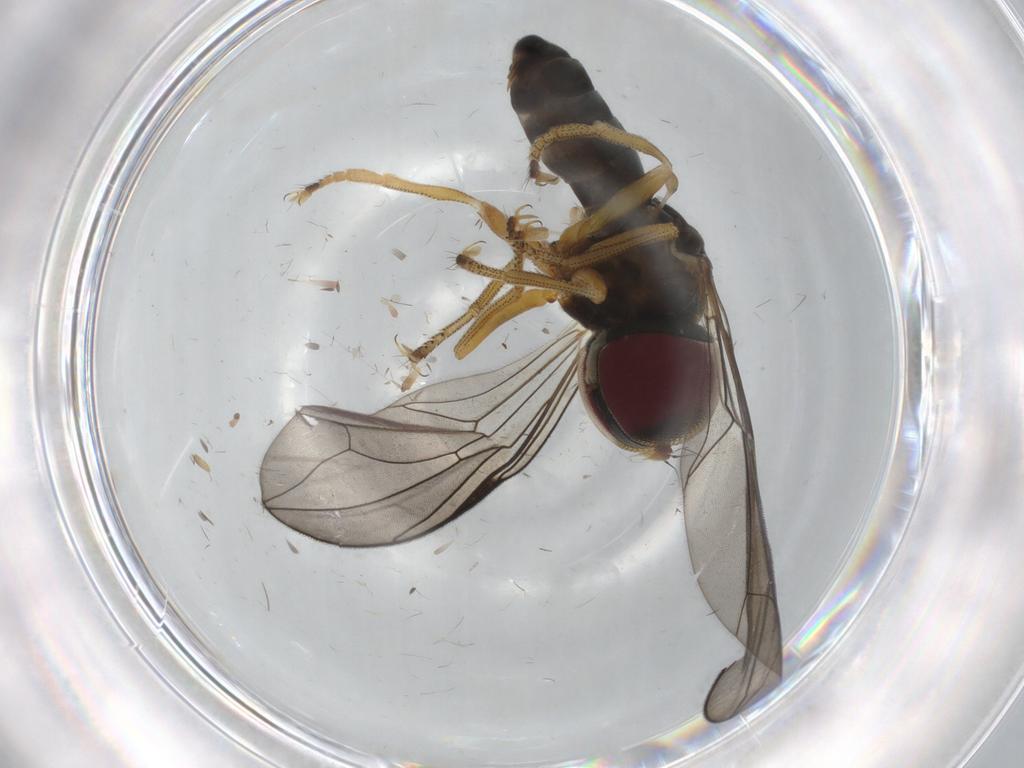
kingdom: Animalia
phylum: Arthropoda
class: Insecta
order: Diptera
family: Pipunculidae
